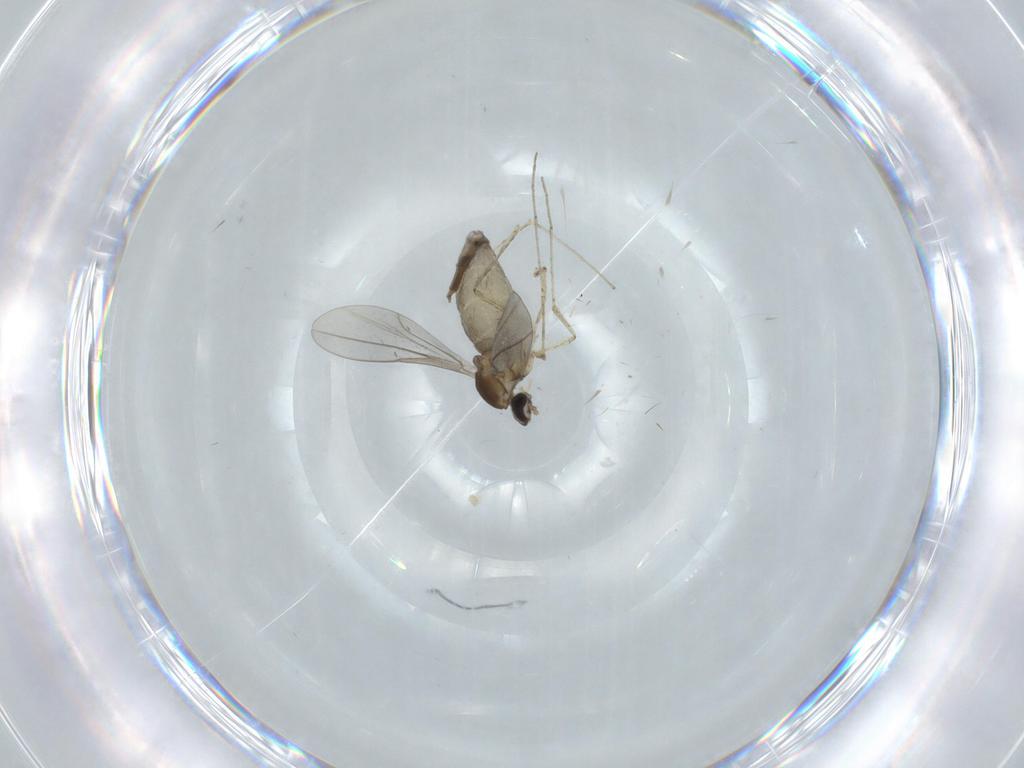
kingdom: Animalia
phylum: Arthropoda
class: Insecta
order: Diptera
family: Cecidomyiidae
